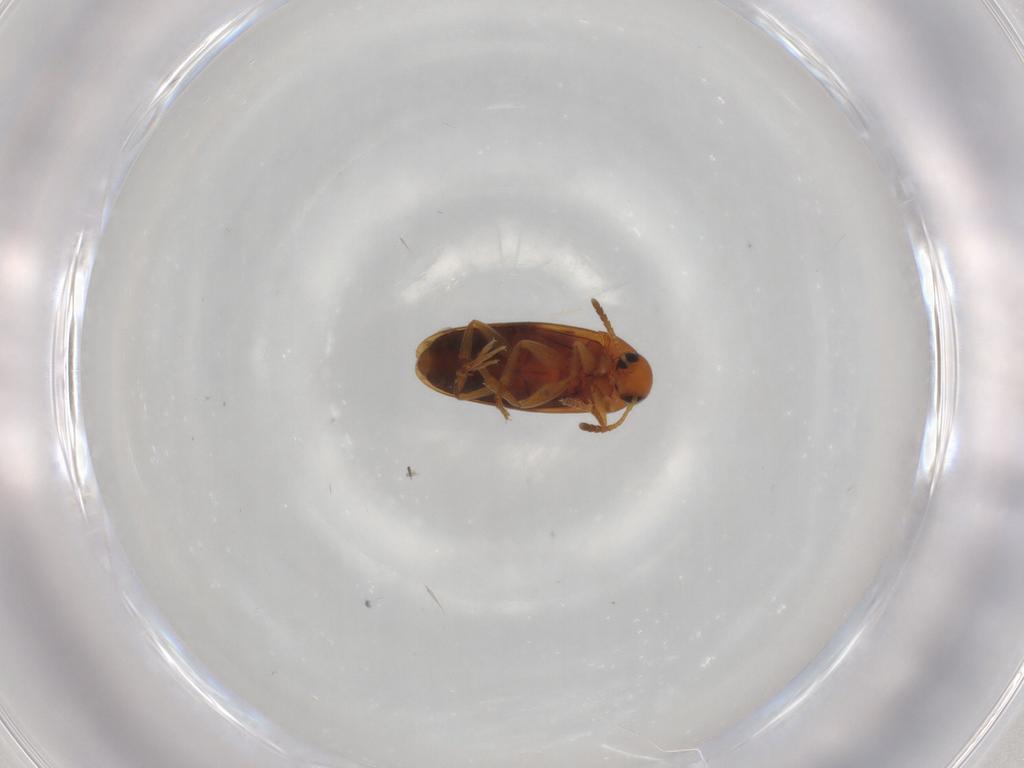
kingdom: Animalia
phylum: Arthropoda
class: Insecta
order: Coleoptera
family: Scraptiidae
